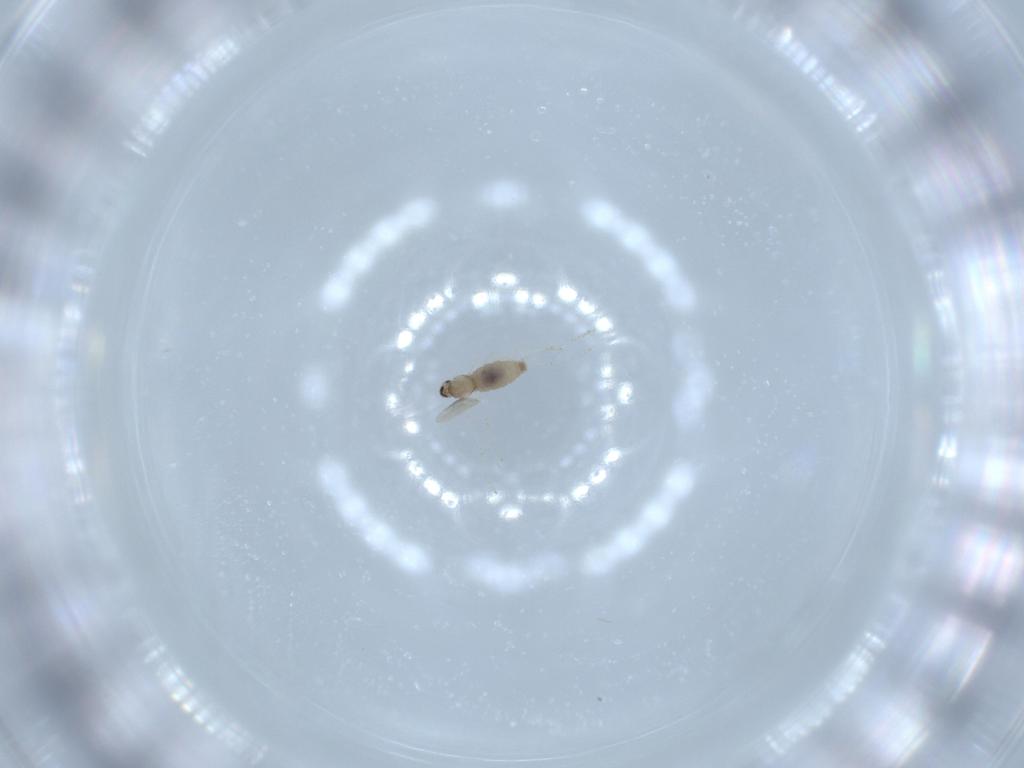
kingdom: Animalia
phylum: Arthropoda
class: Insecta
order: Diptera
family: Cecidomyiidae
